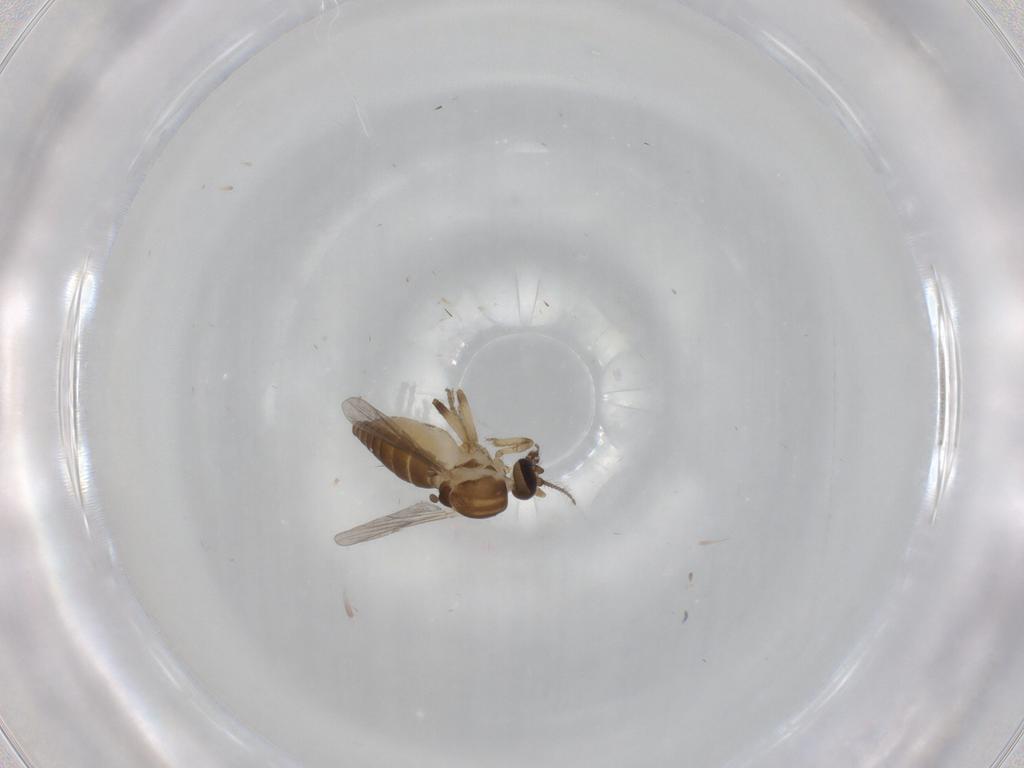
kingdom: Animalia
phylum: Arthropoda
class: Insecta
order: Diptera
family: Ceratopogonidae
